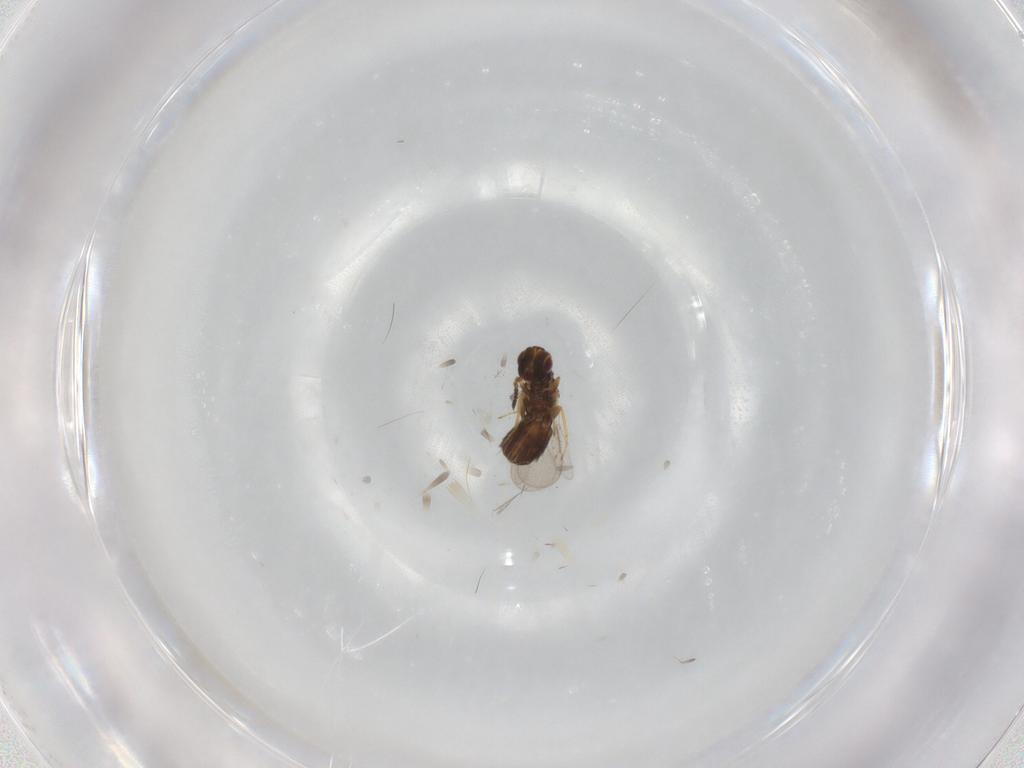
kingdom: Animalia
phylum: Arthropoda
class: Insecta
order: Hymenoptera
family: Eulophidae
